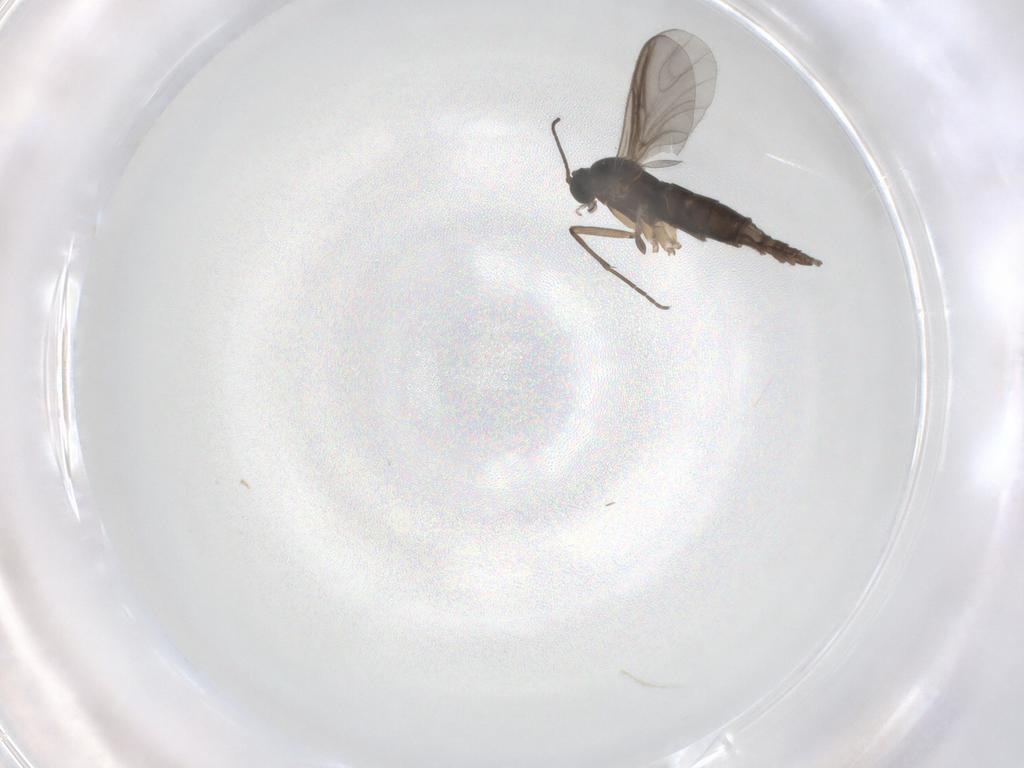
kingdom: Animalia
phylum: Arthropoda
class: Insecta
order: Diptera
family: Sciaridae
